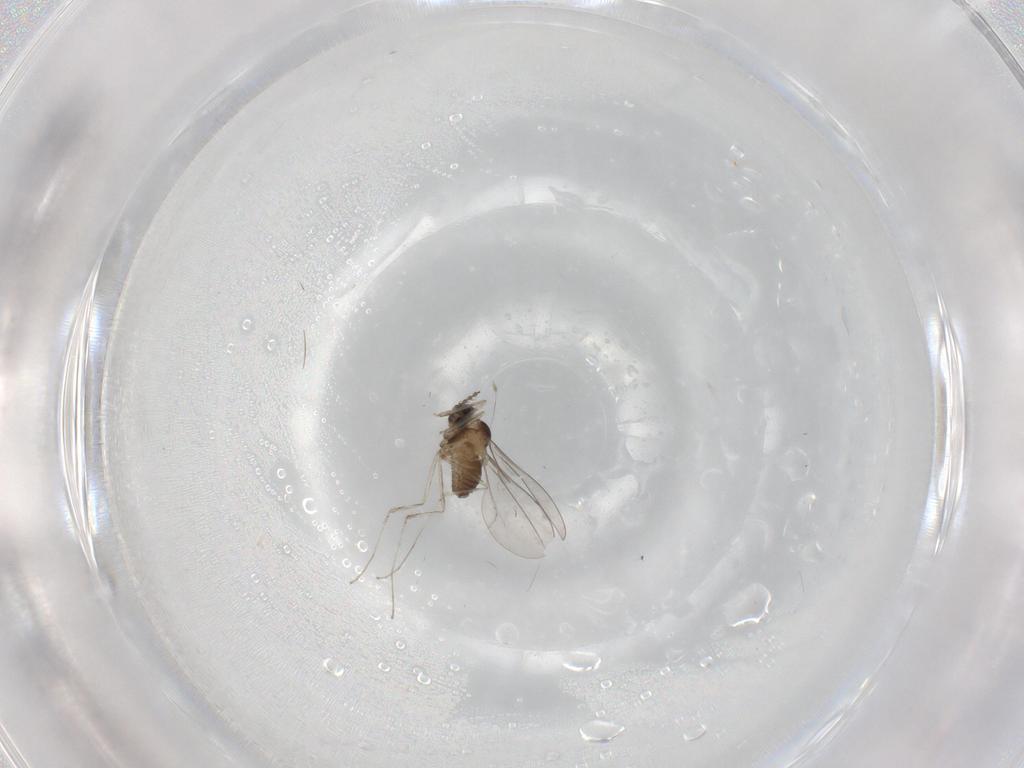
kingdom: Animalia
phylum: Arthropoda
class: Insecta
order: Diptera
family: Cecidomyiidae
